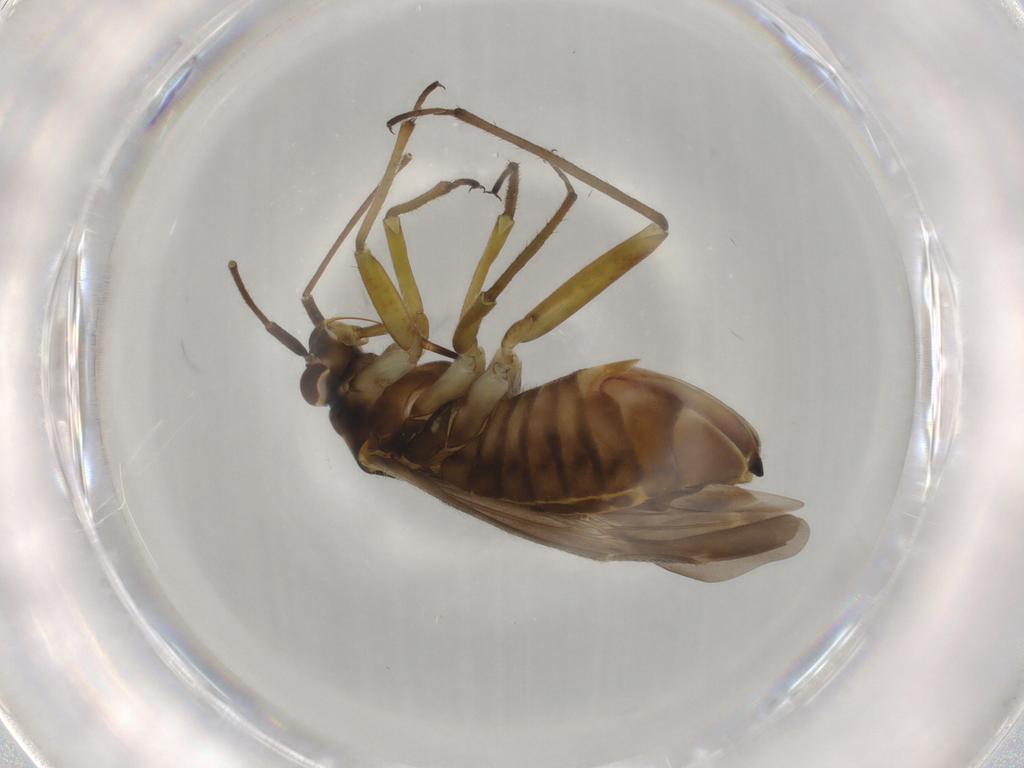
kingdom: Animalia
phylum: Arthropoda
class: Insecta
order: Hemiptera
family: Miridae
